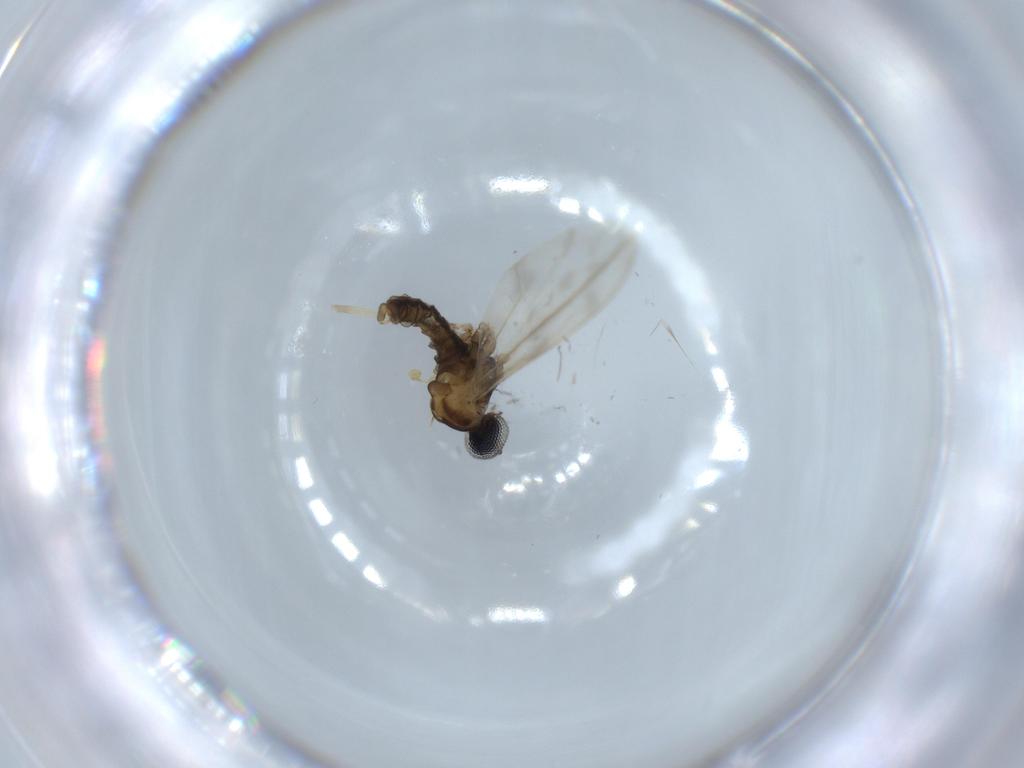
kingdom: Animalia
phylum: Arthropoda
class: Insecta
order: Diptera
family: Cecidomyiidae
